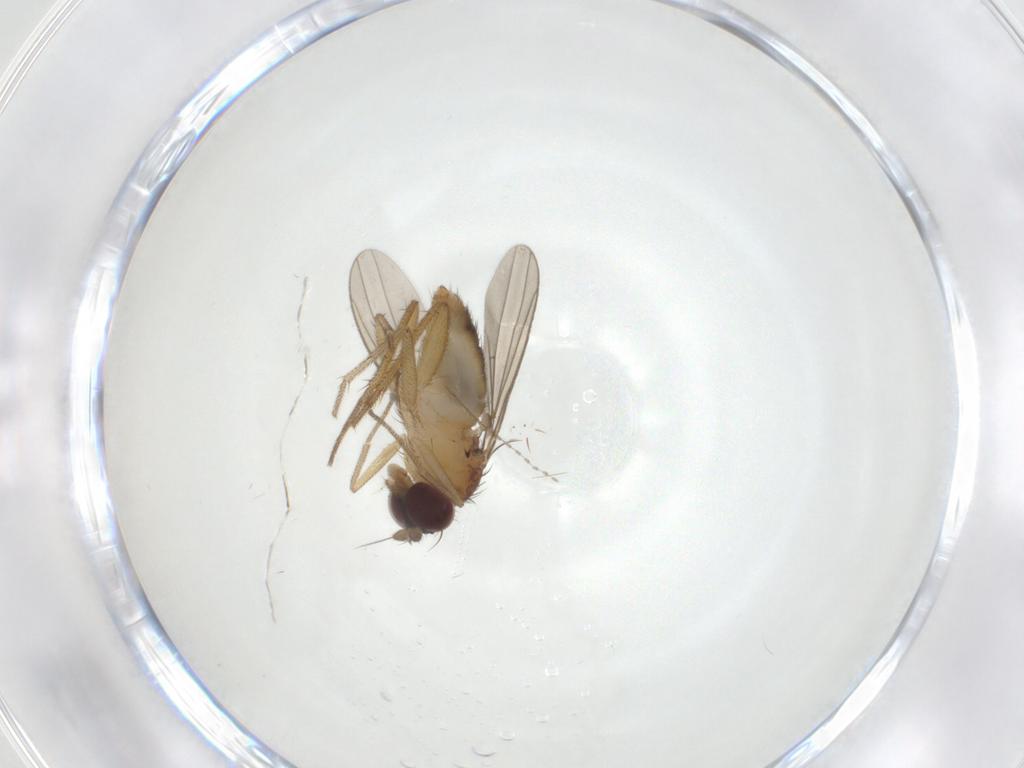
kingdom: Animalia
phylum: Arthropoda
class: Insecta
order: Diptera
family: Dolichopodidae
